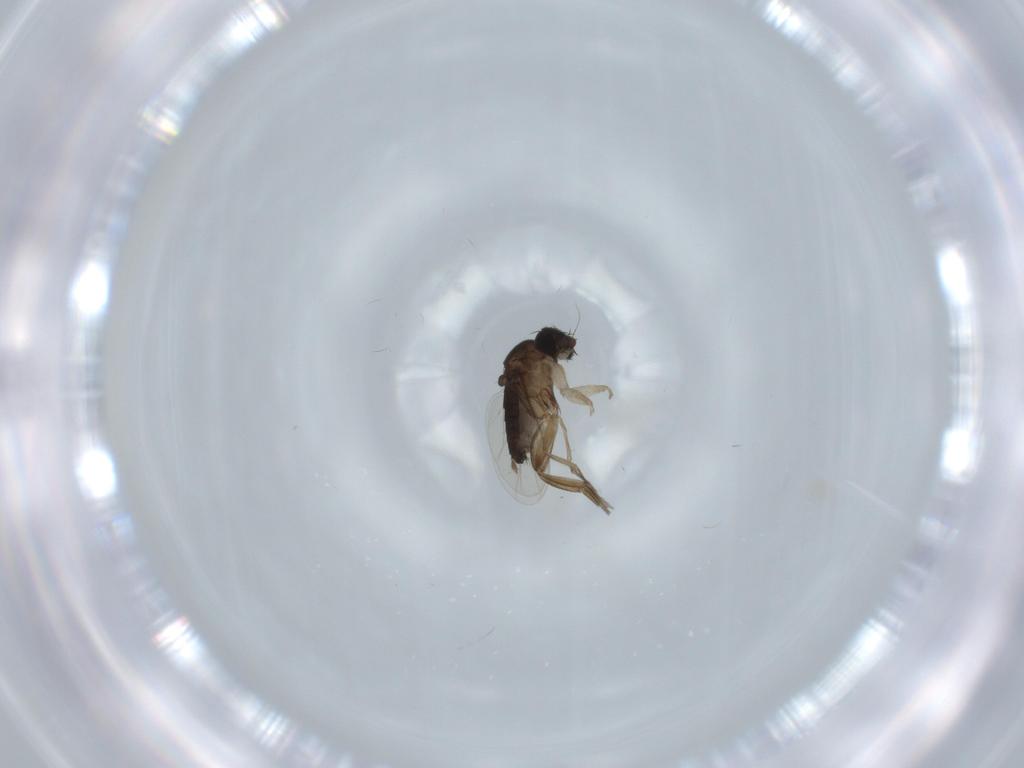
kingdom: Animalia
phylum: Arthropoda
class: Insecta
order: Diptera
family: Phoridae
